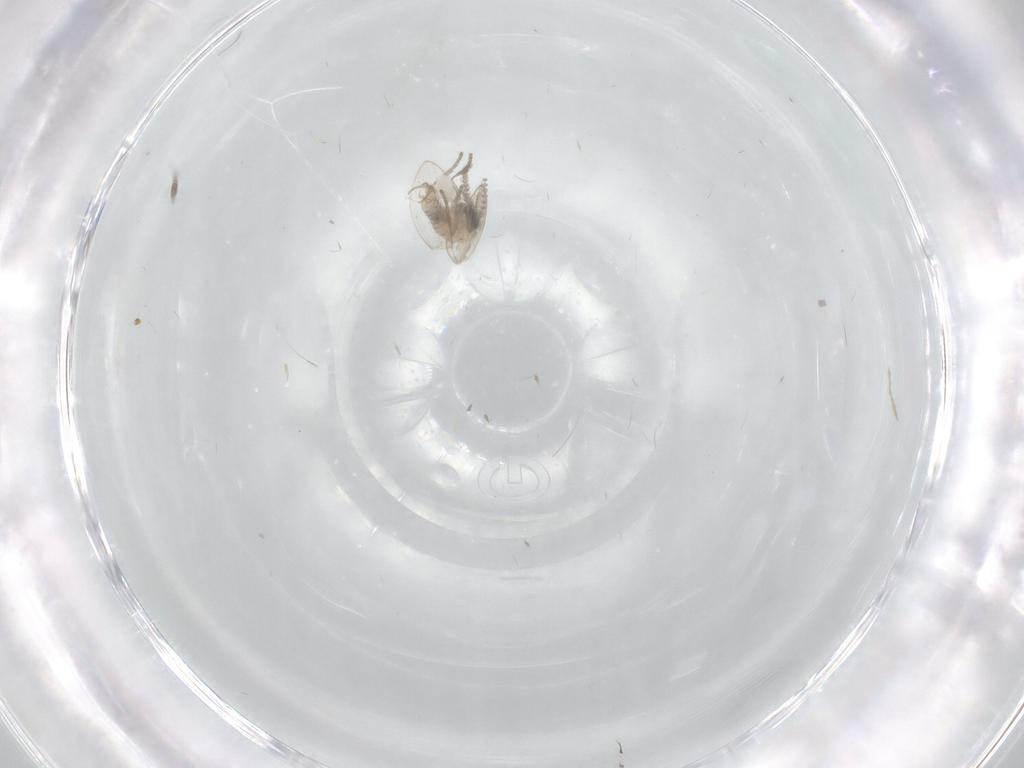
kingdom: Animalia
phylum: Arthropoda
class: Insecta
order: Diptera
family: Psychodidae
